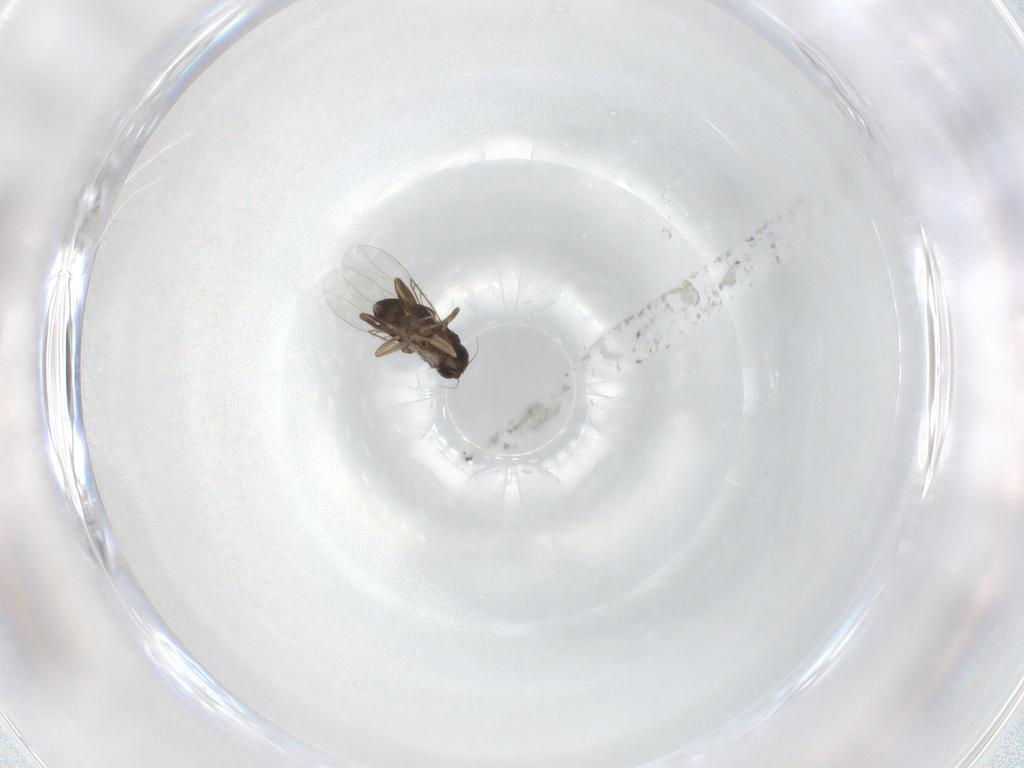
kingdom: Animalia
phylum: Arthropoda
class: Insecta
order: Diptera
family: Phoridae
